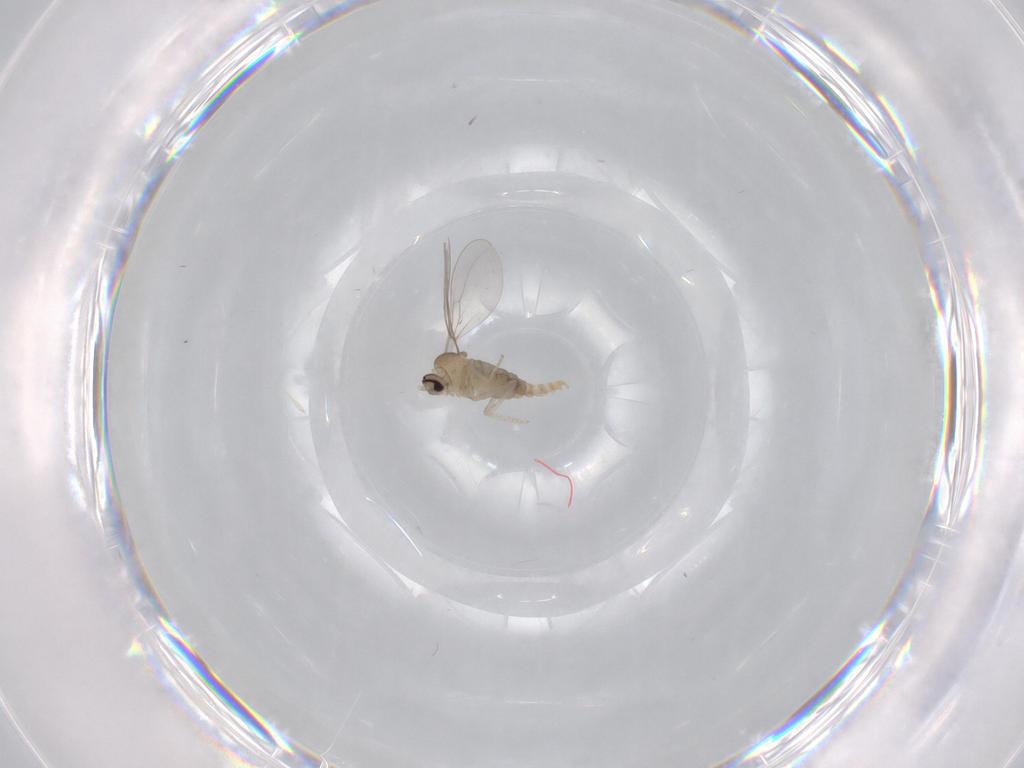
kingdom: Animalia
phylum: Arthropoda
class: Insecta
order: Diptera
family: Cecidomyiidae
